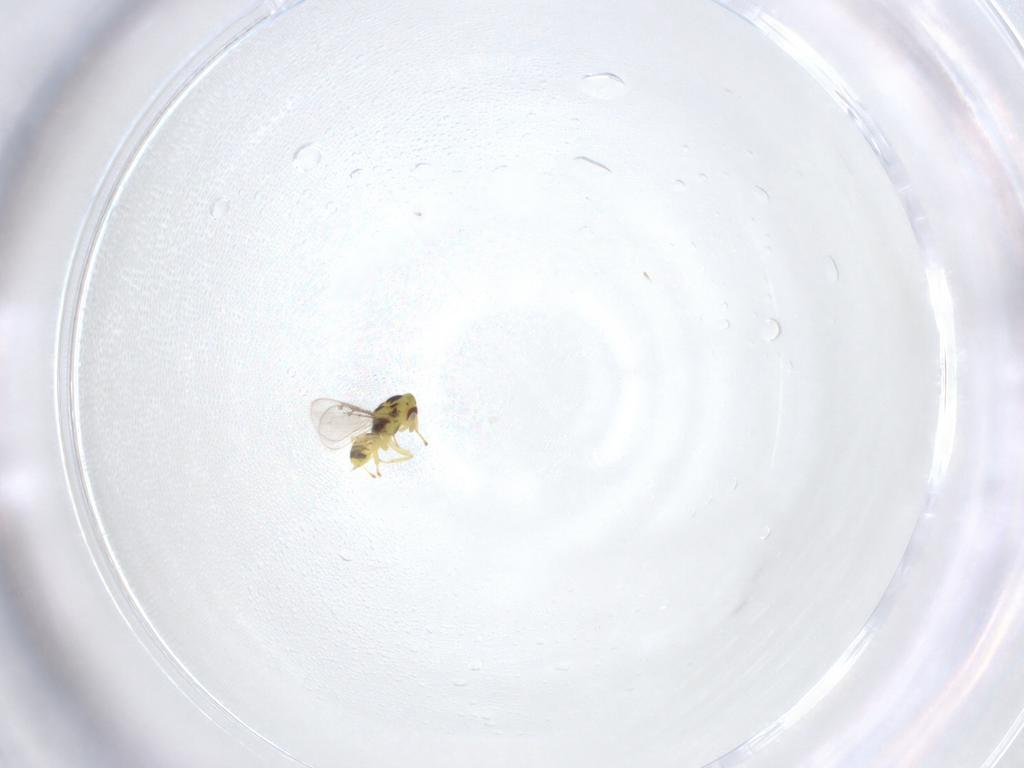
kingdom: Animalia
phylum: Arthropoda
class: Insecta
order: Hymenoptera
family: Eulophidae
